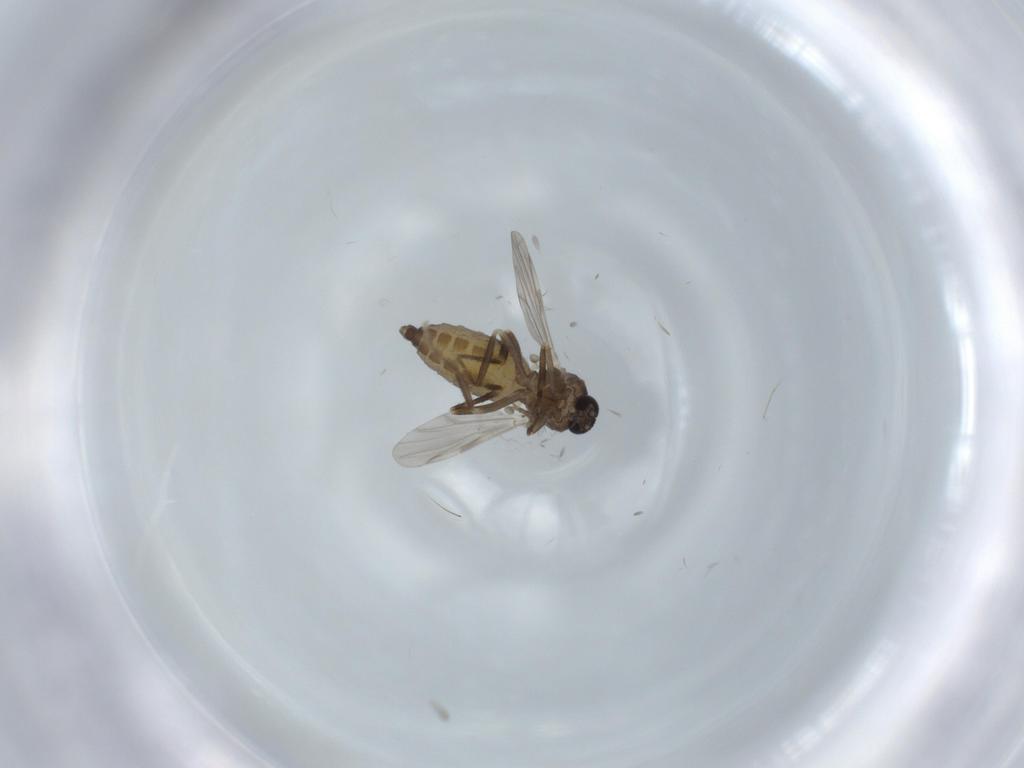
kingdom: Animalia
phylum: Arthropoda
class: Insecta
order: Diptera
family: Ceratopogonidae
